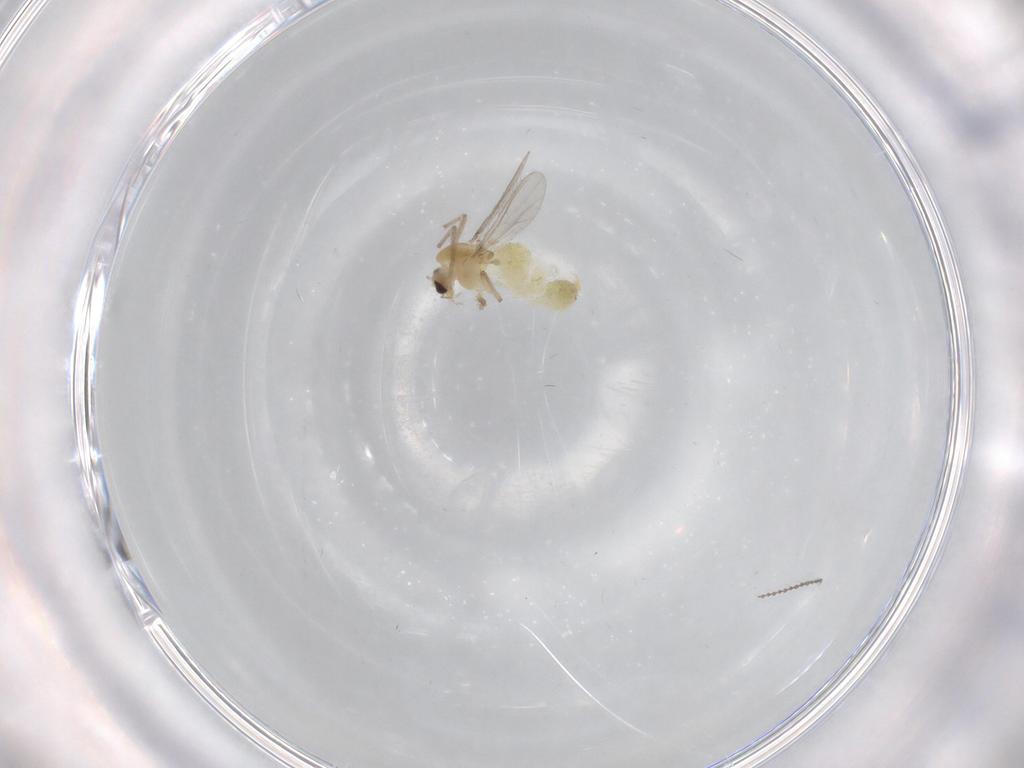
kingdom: Animalia
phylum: Arthropoda
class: Insecta
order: Diptera
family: Chironomidae
